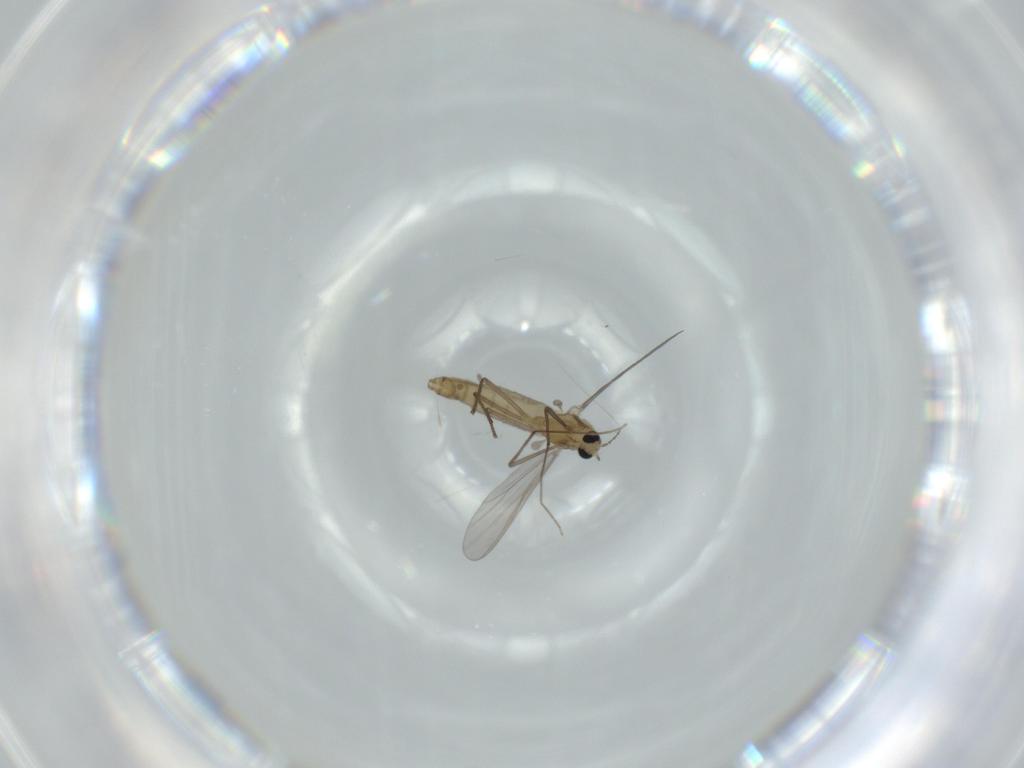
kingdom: Animalia
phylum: Arthropoda
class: Insecta
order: Diptera
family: Chironomidae
